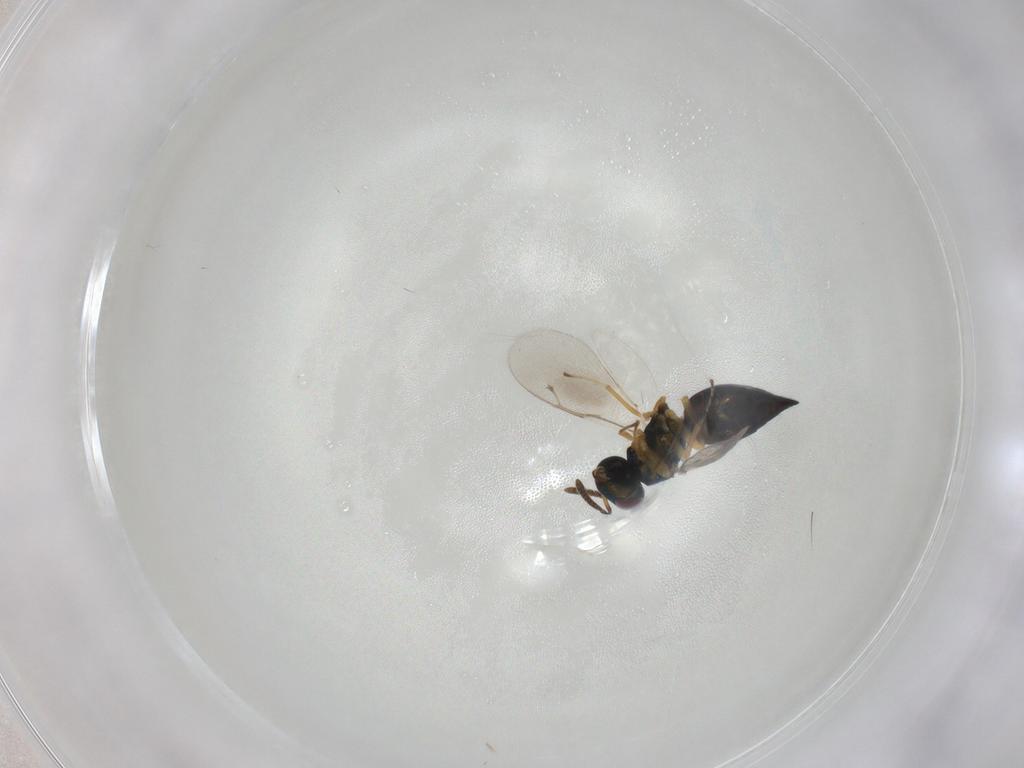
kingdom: Animalia
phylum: Arthropoda
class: Insecta
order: Hymenoptera
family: Pteromalidae
